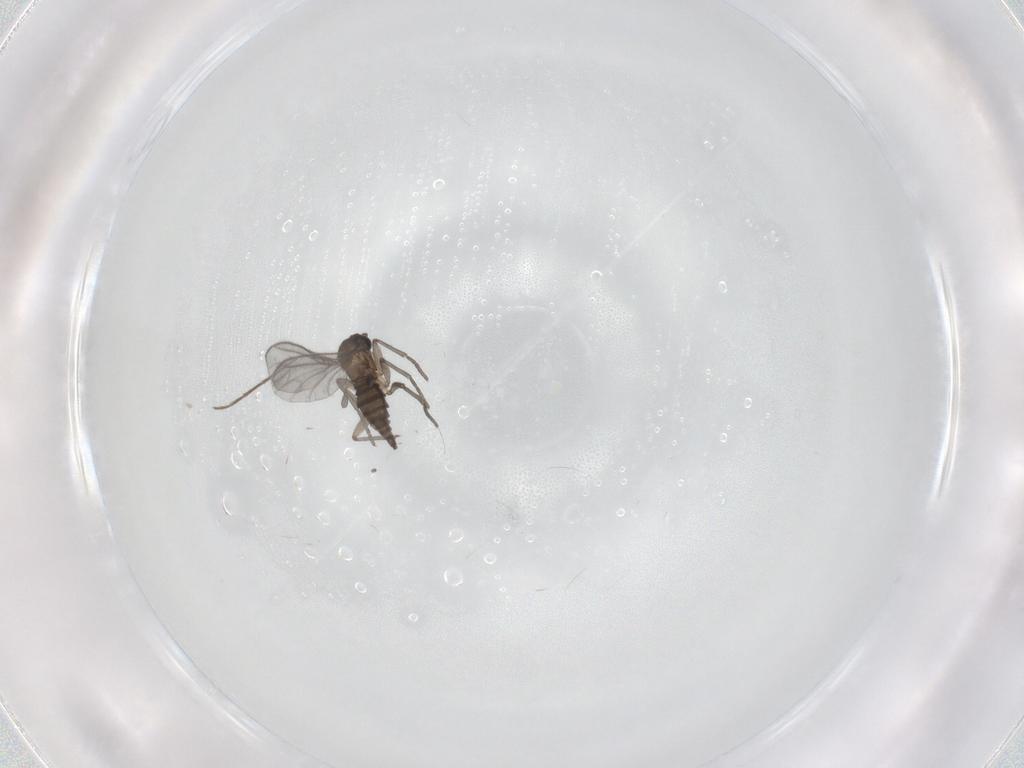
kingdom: Animalia
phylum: Arthropoda
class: Insecta
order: Diptera
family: Chironomidae
